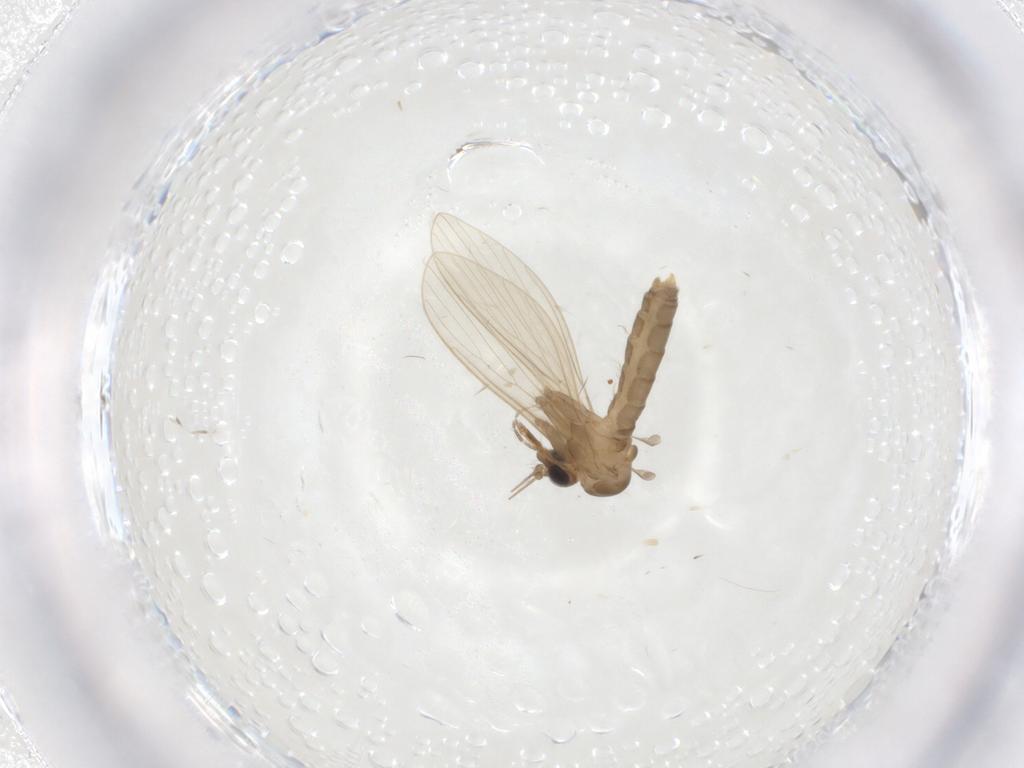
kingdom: Animalia
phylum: Arthropoda
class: Insecta
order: Diptera
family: Psychodidae
